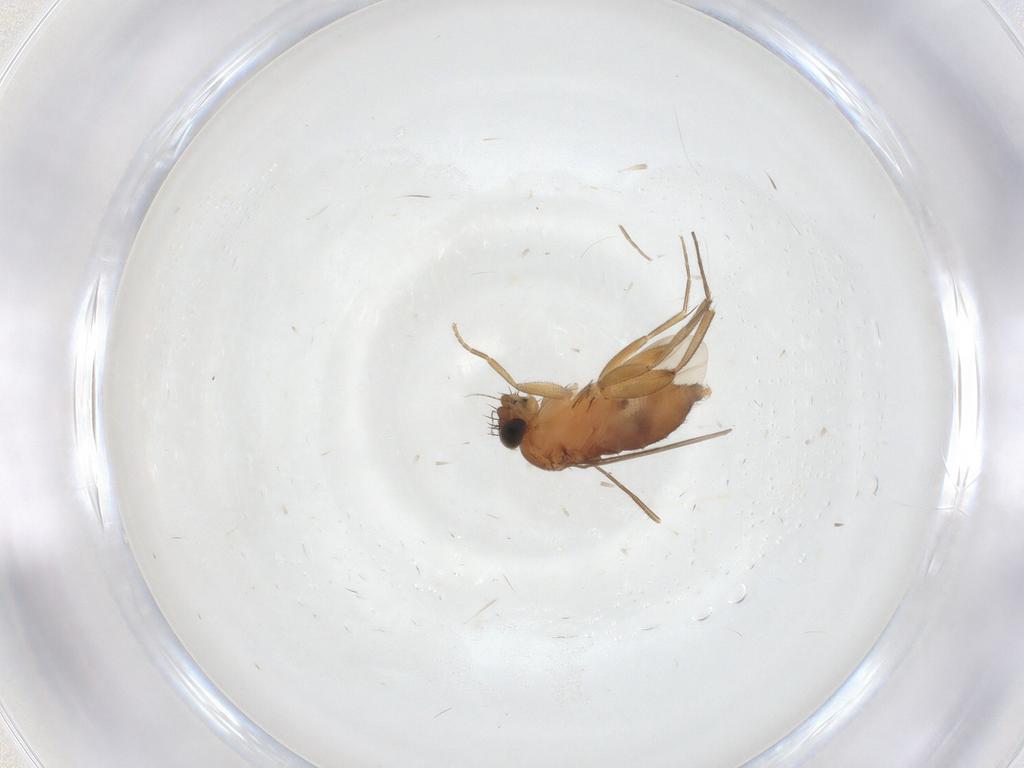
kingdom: Animalia
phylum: Arthropoda
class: Insecta
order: Diptera
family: Phoridae
